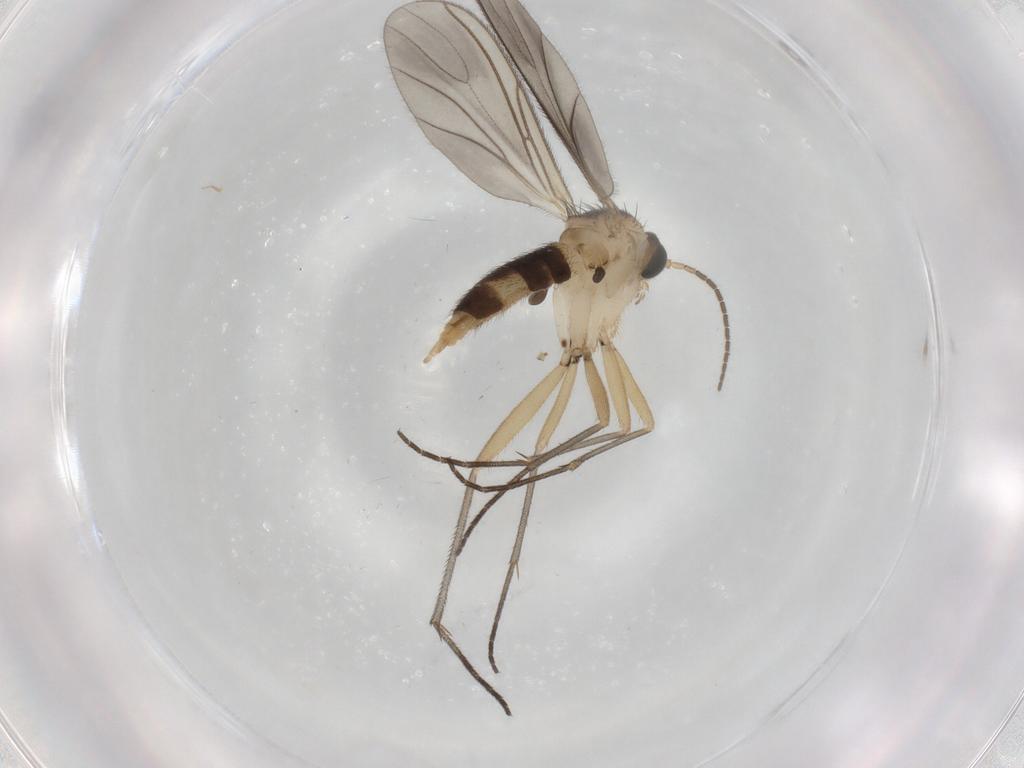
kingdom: Animalia
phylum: Arthropoda
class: Insecta
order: Diptera
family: Sciaridae
